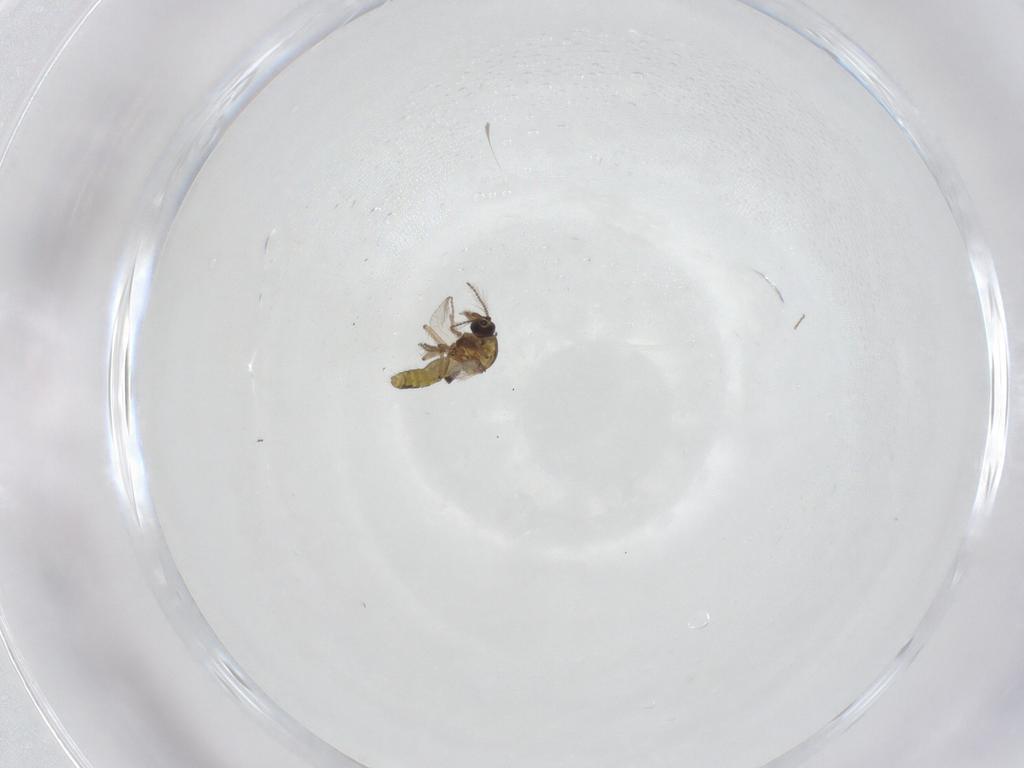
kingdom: Animalia
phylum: Arthropoda
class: Insecta
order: Diptera
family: Ceratopogonidae
